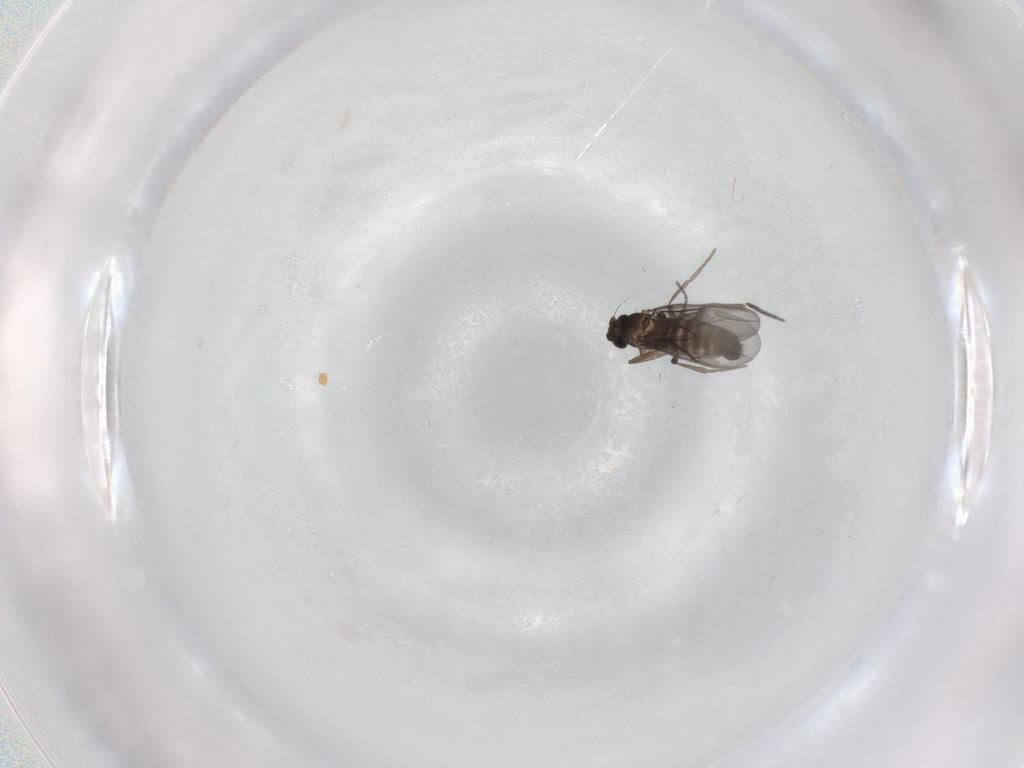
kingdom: Animalia
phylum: Arthropoda
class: Insecta
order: Diptera
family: Phoridae
